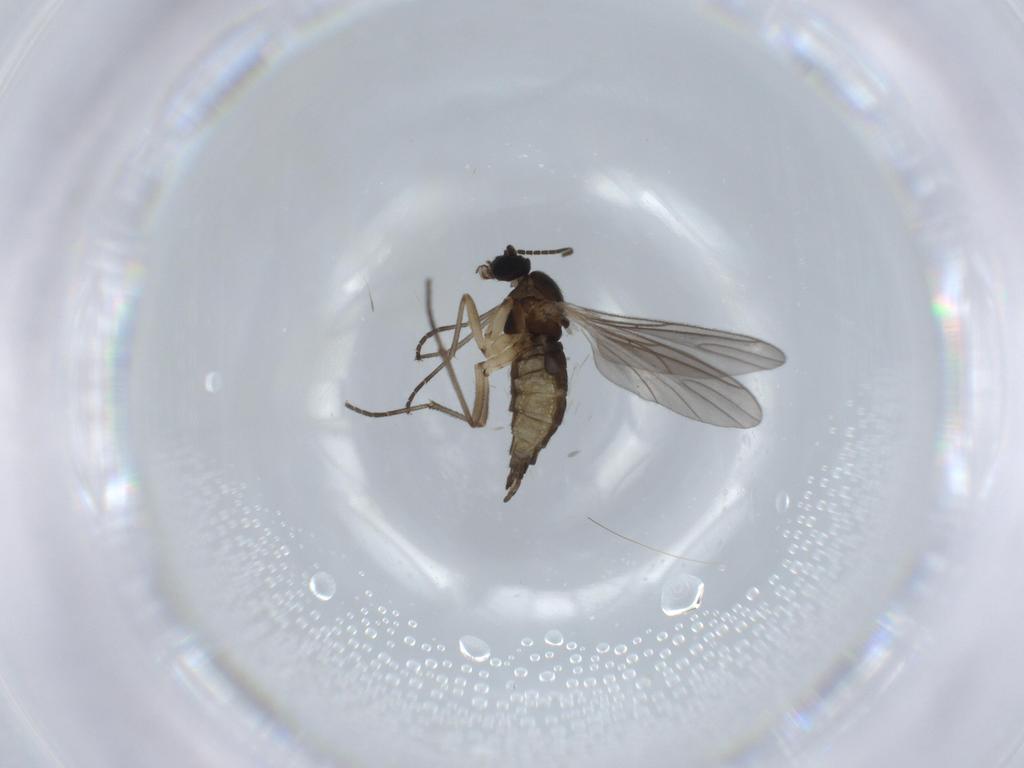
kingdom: Animalia
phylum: Arthropoda
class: Insecta
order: Diptera
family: Sciaridae
